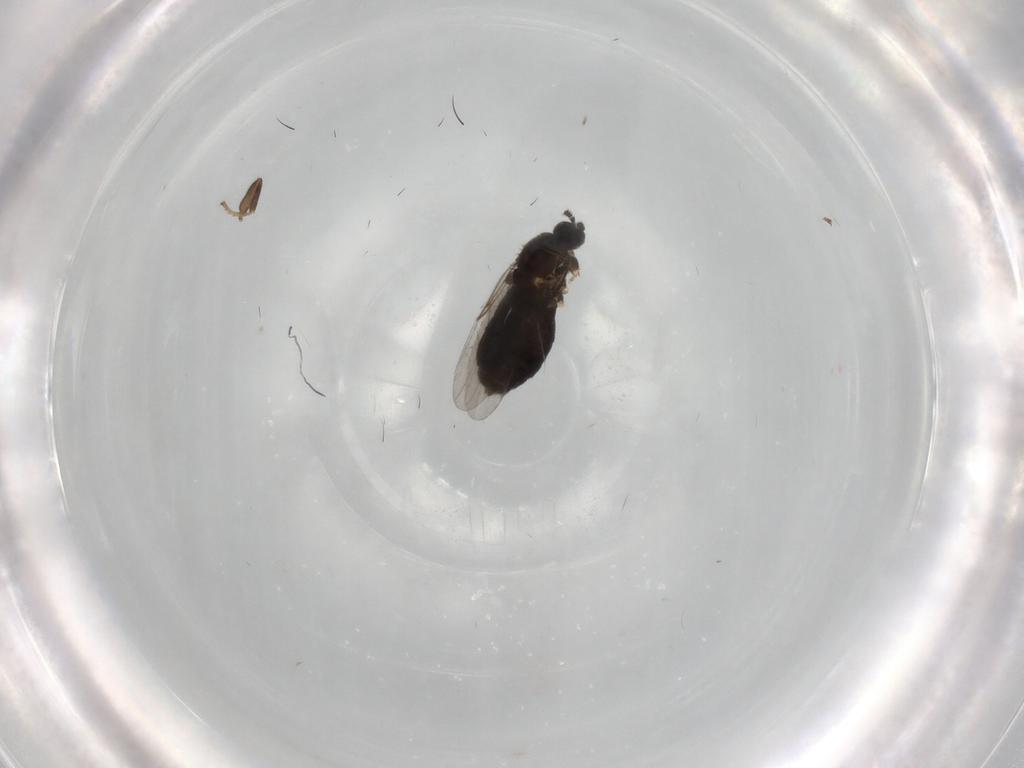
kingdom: Animalia
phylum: Arthropoda
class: Insecta
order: Diptera
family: Scatopsidae
